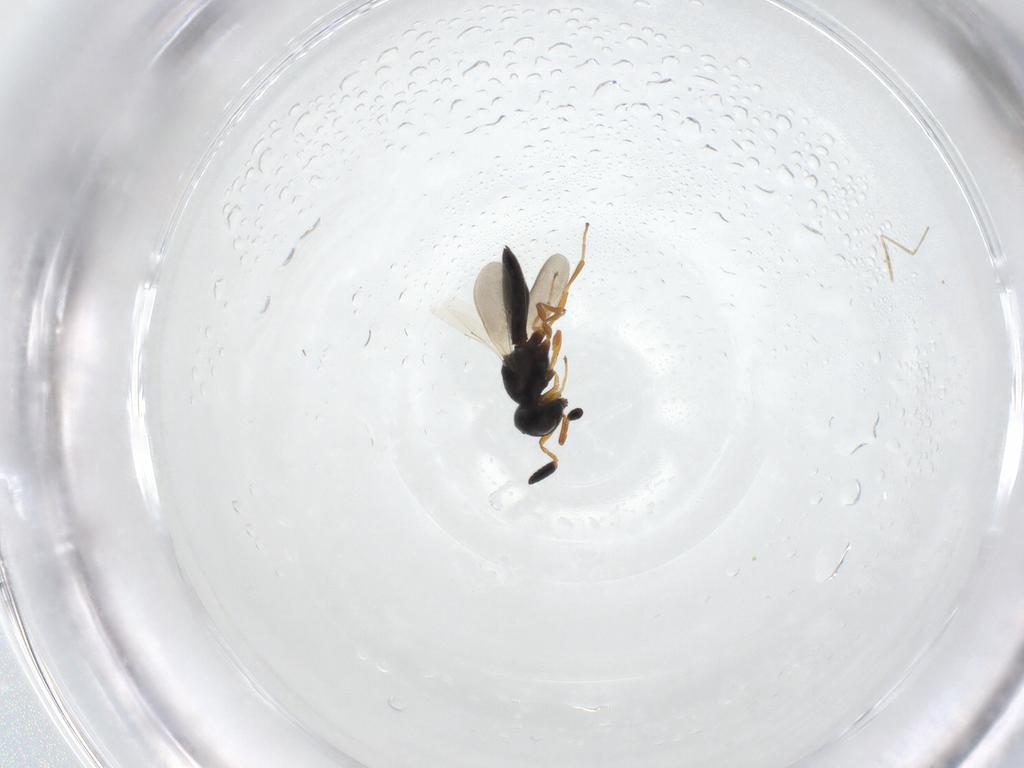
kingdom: Animalia
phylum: Arthropoda
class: Insecta
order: Hymenoptera
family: Scelionidae
